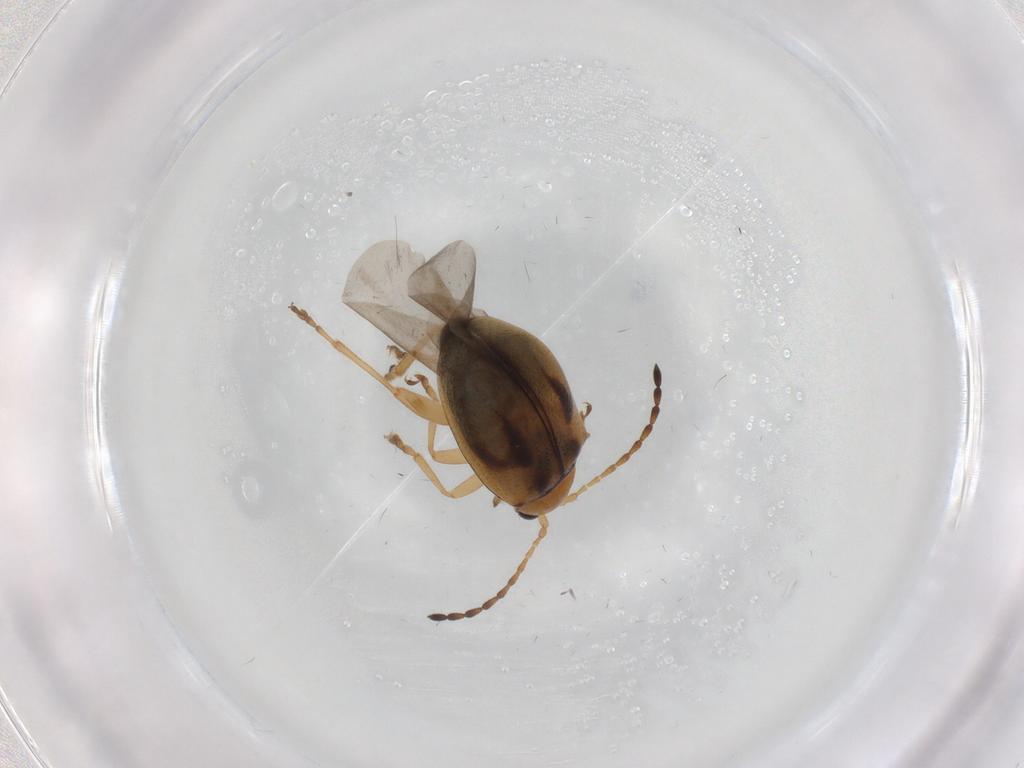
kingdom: Animalia
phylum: Arthropoda
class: Insecta
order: Coleoptera
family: Chrysomelidae
